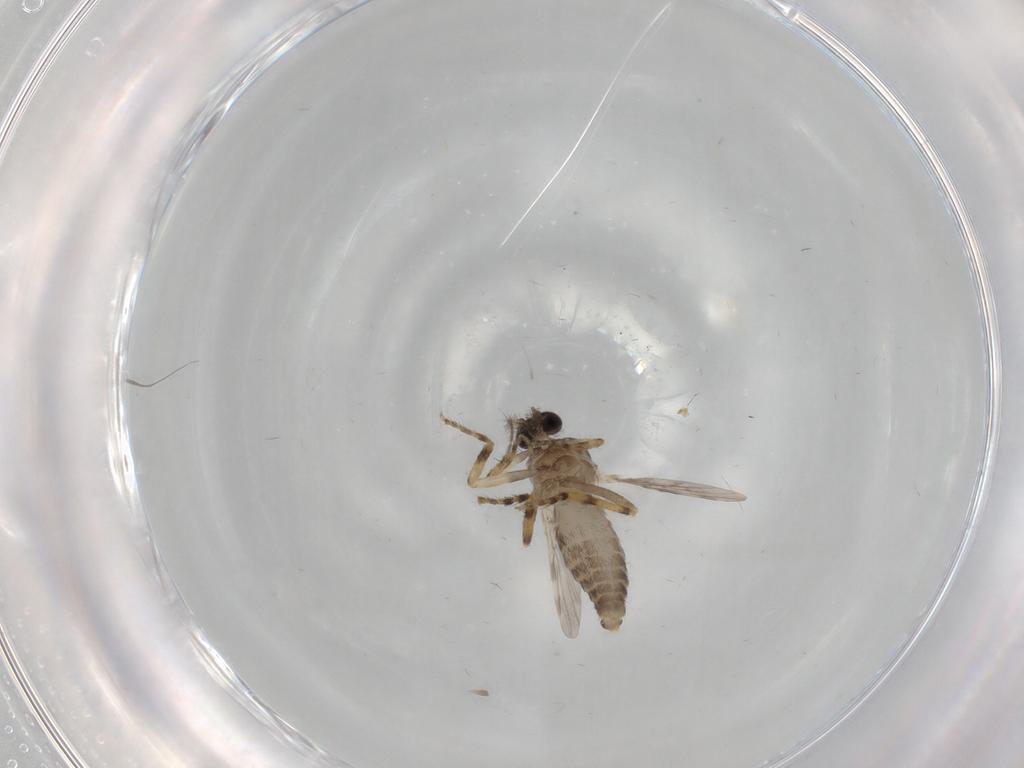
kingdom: Animalia
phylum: Arthropoda
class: Insecta
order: Diptera
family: Ceratopogonidae
